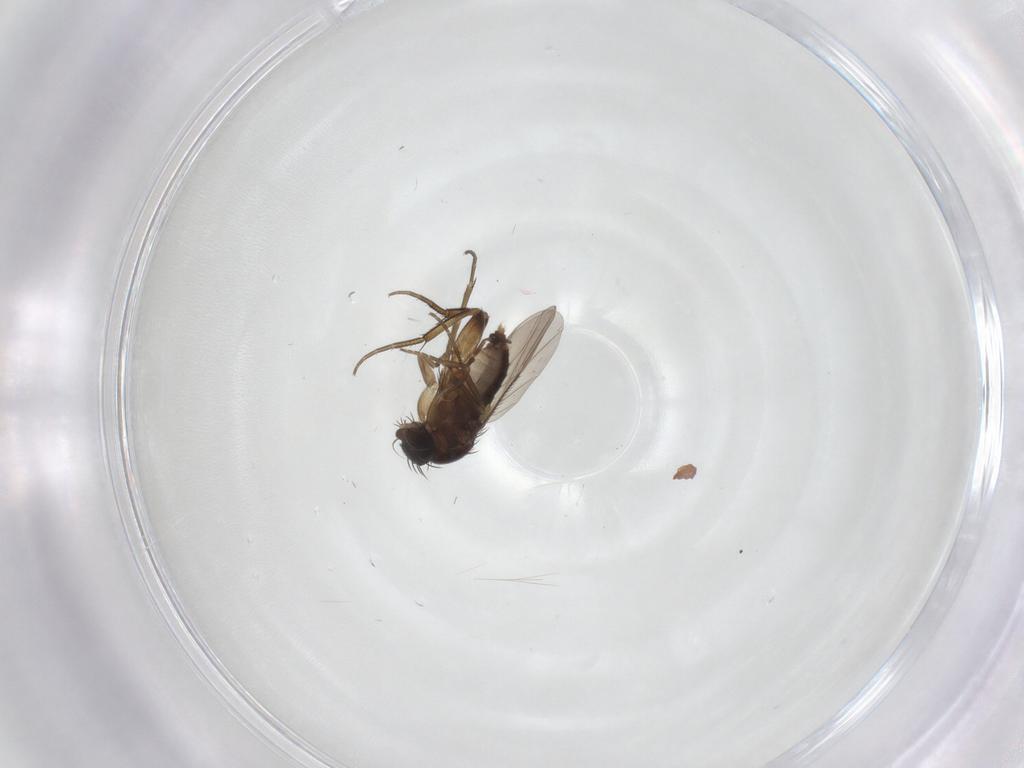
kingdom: Animalia
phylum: Arthropoda
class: Insecta
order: Diptera
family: Phoridae
